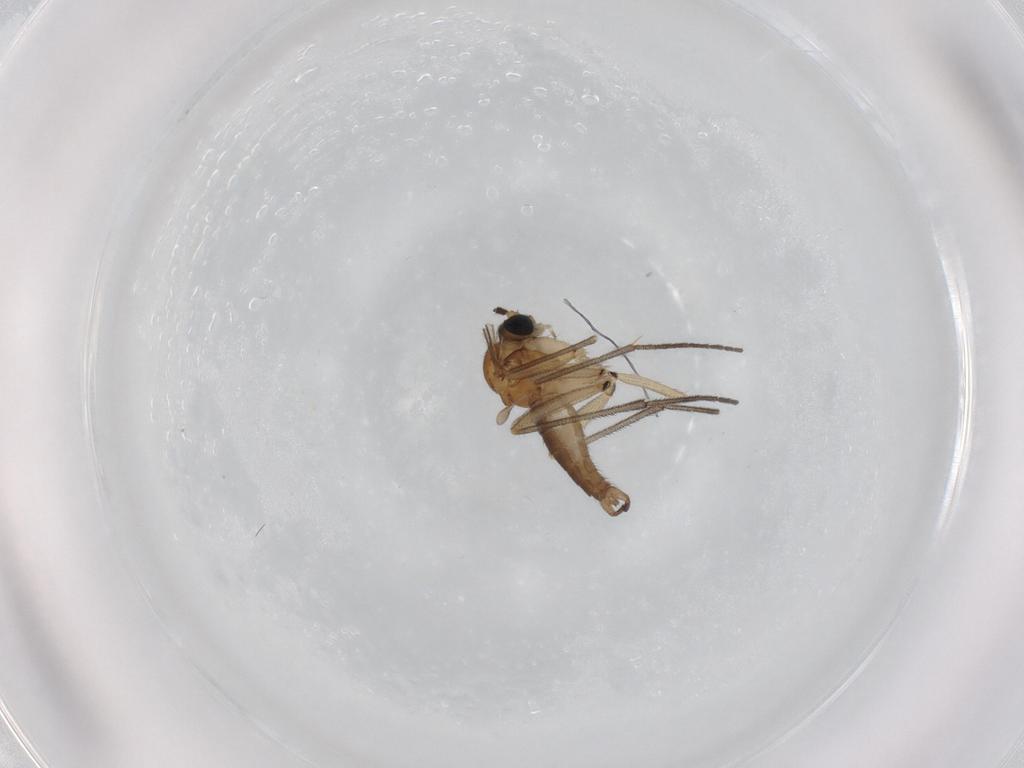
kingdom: Animalia
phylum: Arthropoda
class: Insecta
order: Diptera
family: Sciaridae
